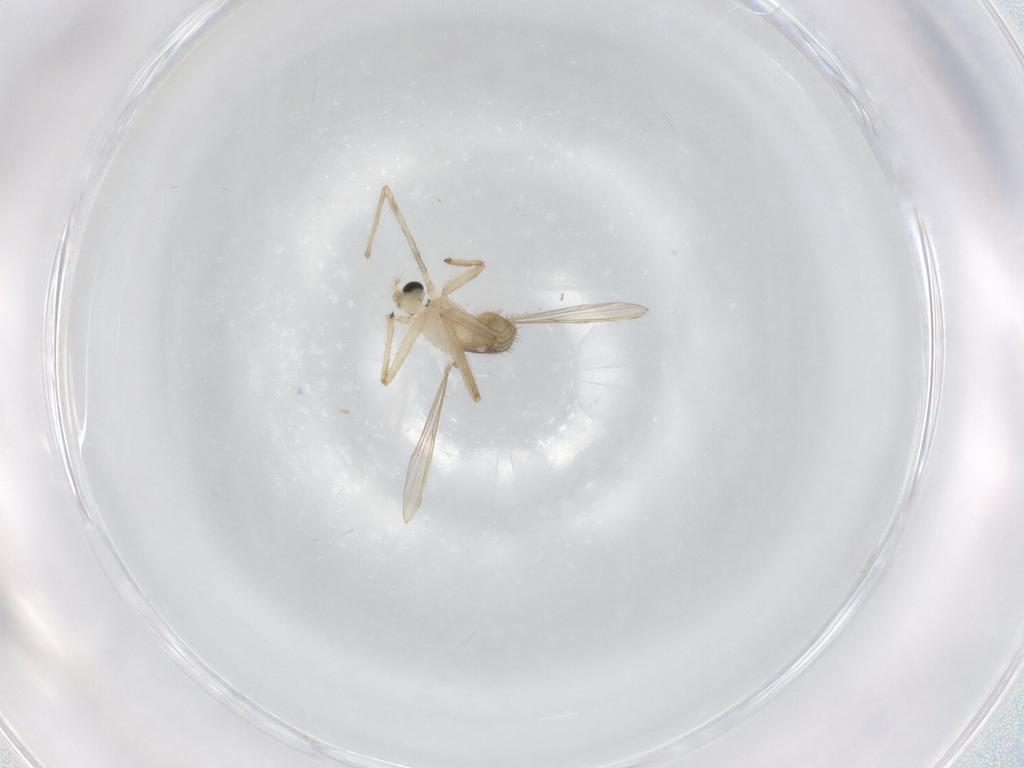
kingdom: Animalia
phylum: Arthropoda
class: Insecta
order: Diptera
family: Chironomidae
